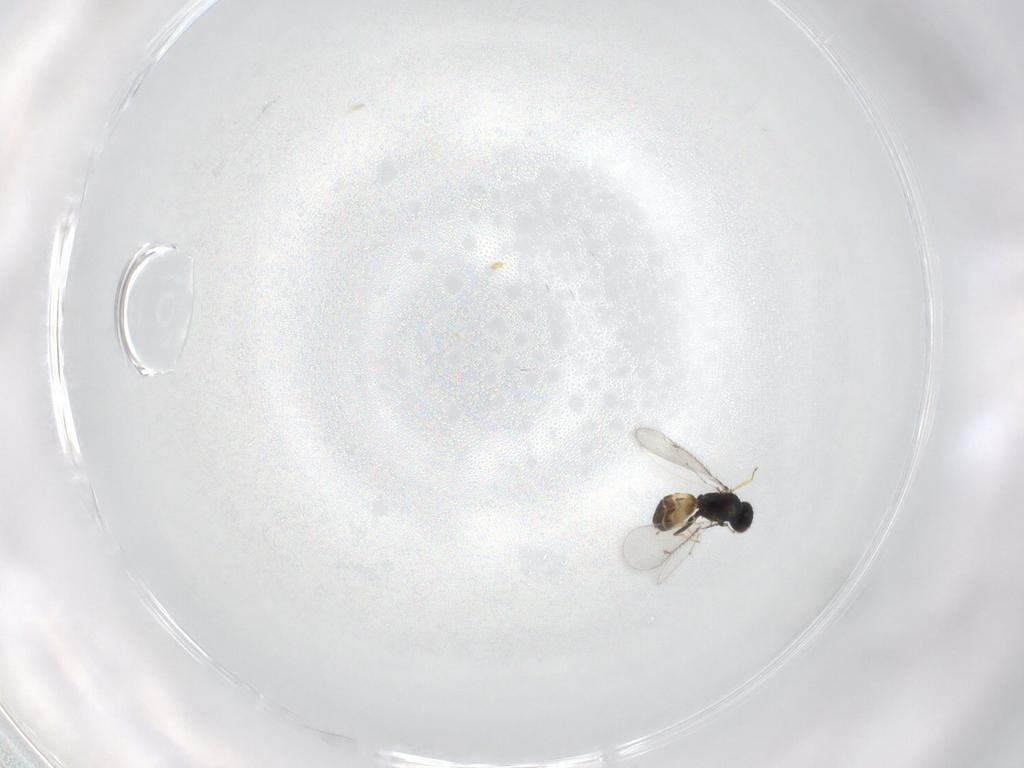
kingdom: Animalia
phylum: Arthropoda
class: Insecta
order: Hymenoptera
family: Eulophidae
